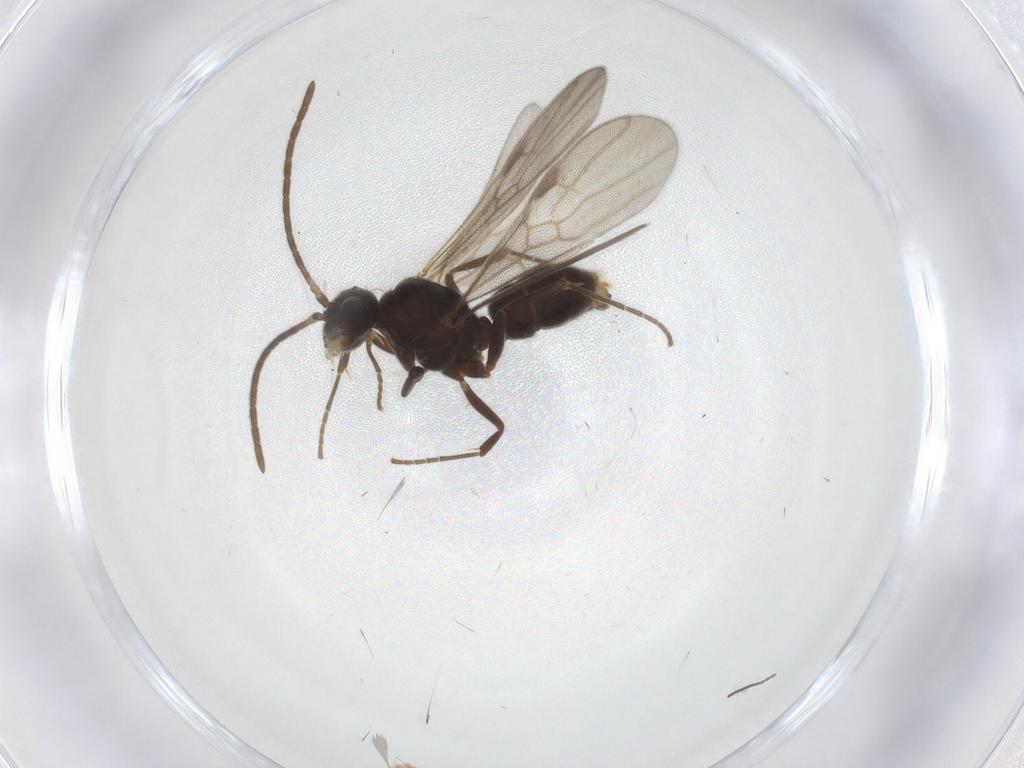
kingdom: Animalia
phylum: Arthropoda
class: Insecta
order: Hymenoptera
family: Formicidae
